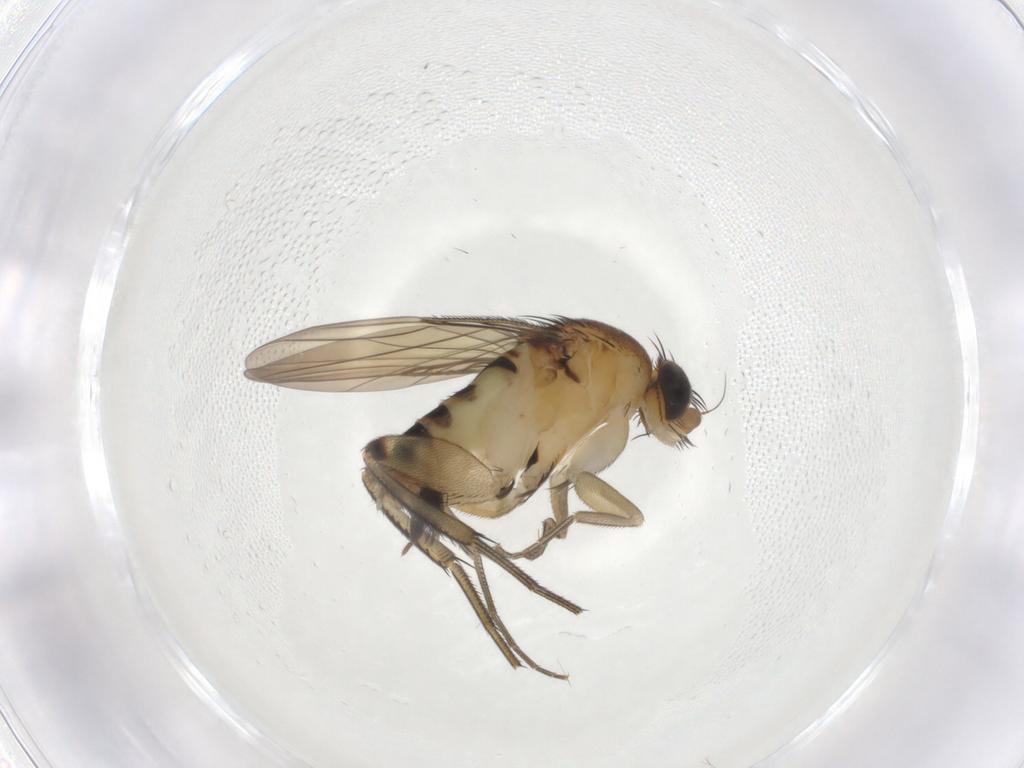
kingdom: Animalia
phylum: Arthropoda
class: Insecta
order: Diptera
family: Ceratopogonidae
